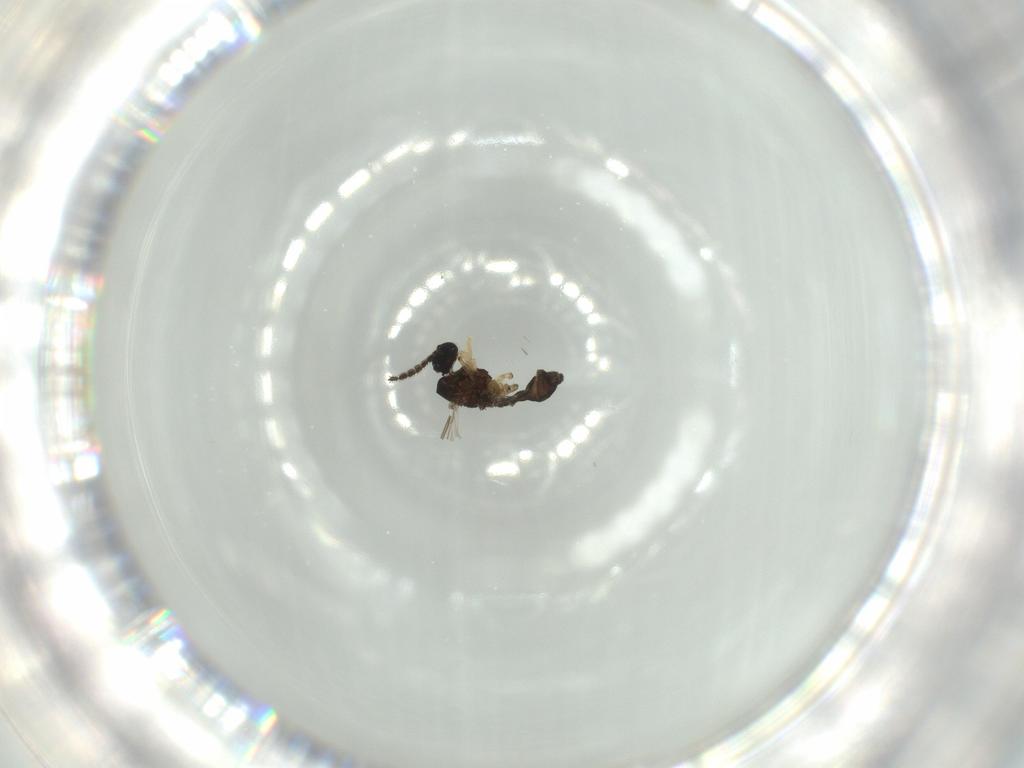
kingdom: Animalia
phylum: Arthropoda
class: Insecta
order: Diptera
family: Sciaridae
